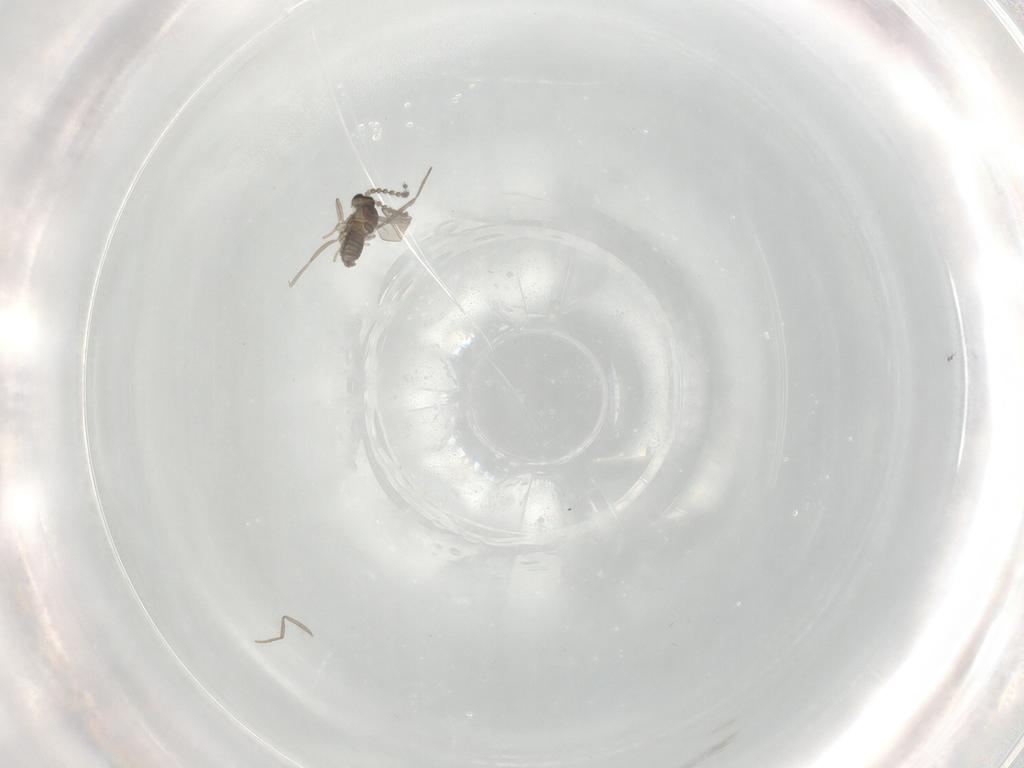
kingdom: Animalia
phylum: Arthropoda
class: Insecta
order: Diptera
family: Cecidomyiidae
